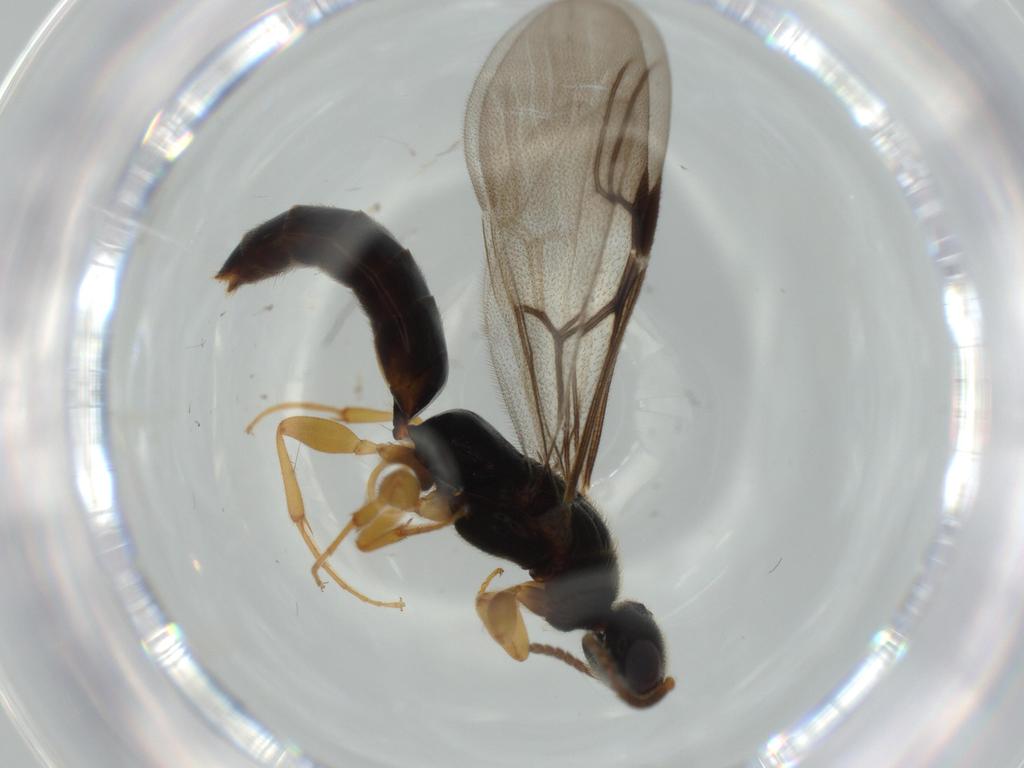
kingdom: Animalia
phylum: Arthropoda
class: Insecta
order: Hymenoptera
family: Bethylidae
